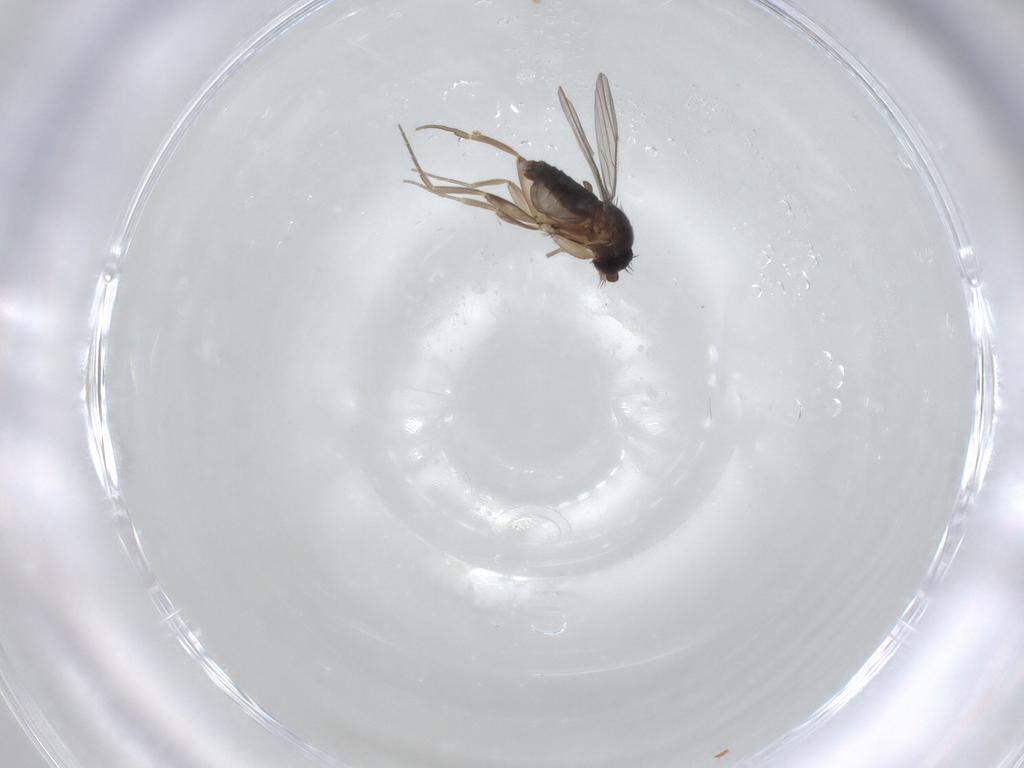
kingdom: Animalia
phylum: Arthropoda
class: Insecta
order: Diptera
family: Phoridae
